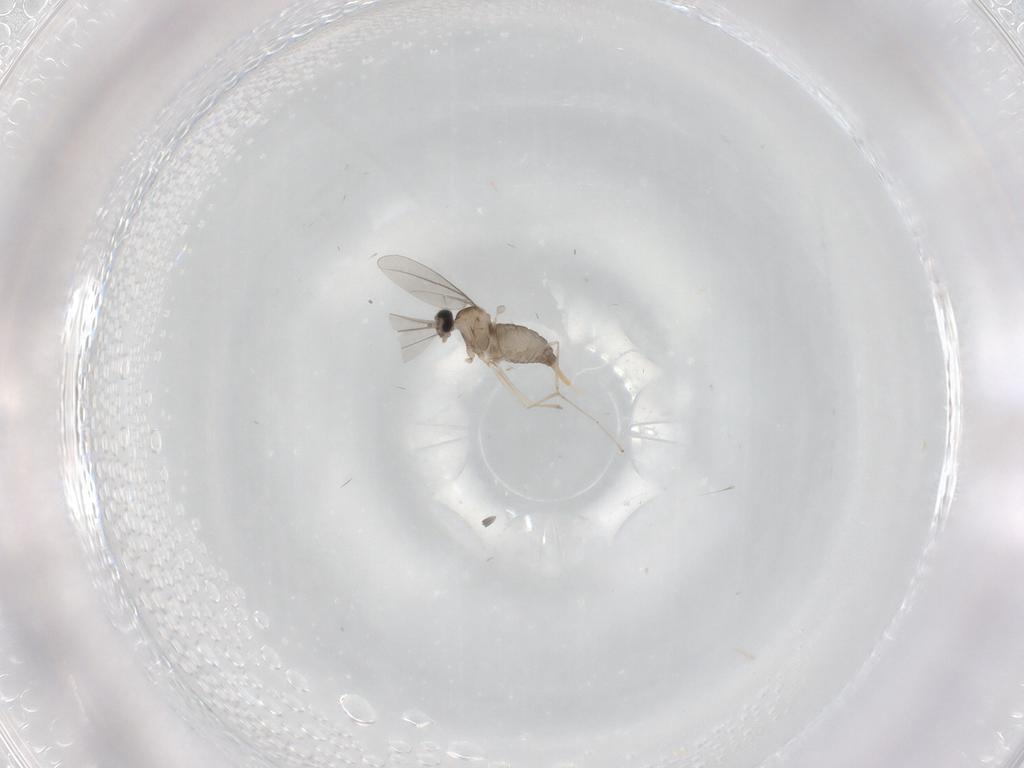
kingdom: Animalia
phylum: Arthropoda
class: Insecta
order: Diptera
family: Cecidomyiidae
